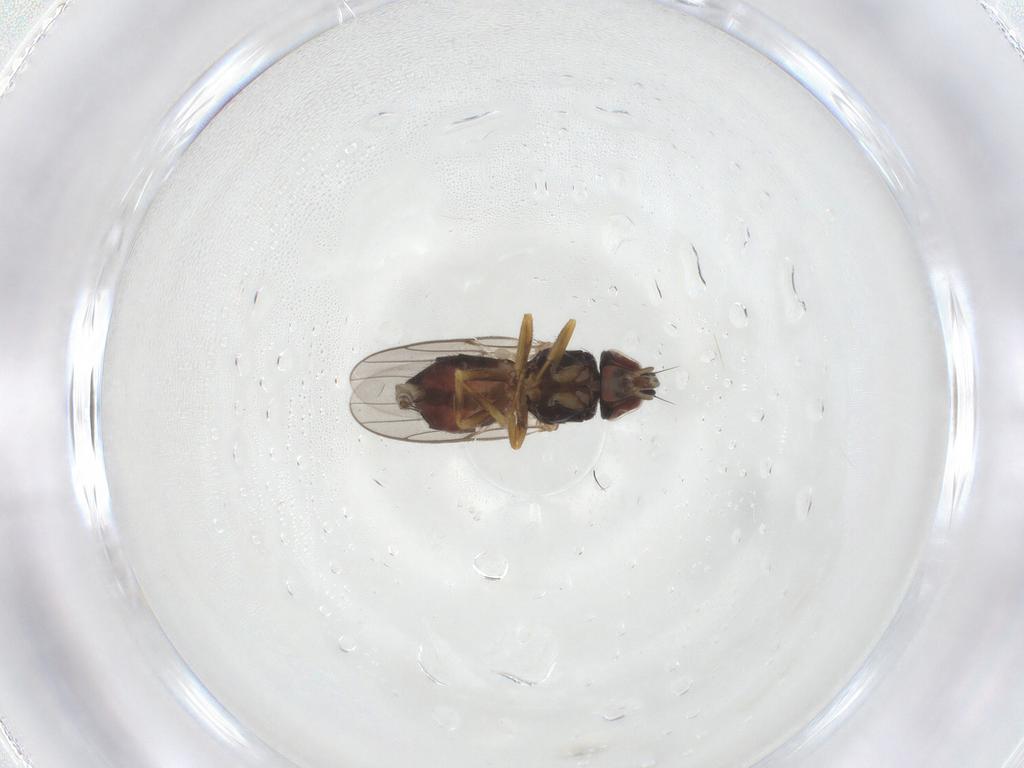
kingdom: Animalia
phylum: Arthropoda
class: Insecta
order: Diptera
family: Chloropidae
